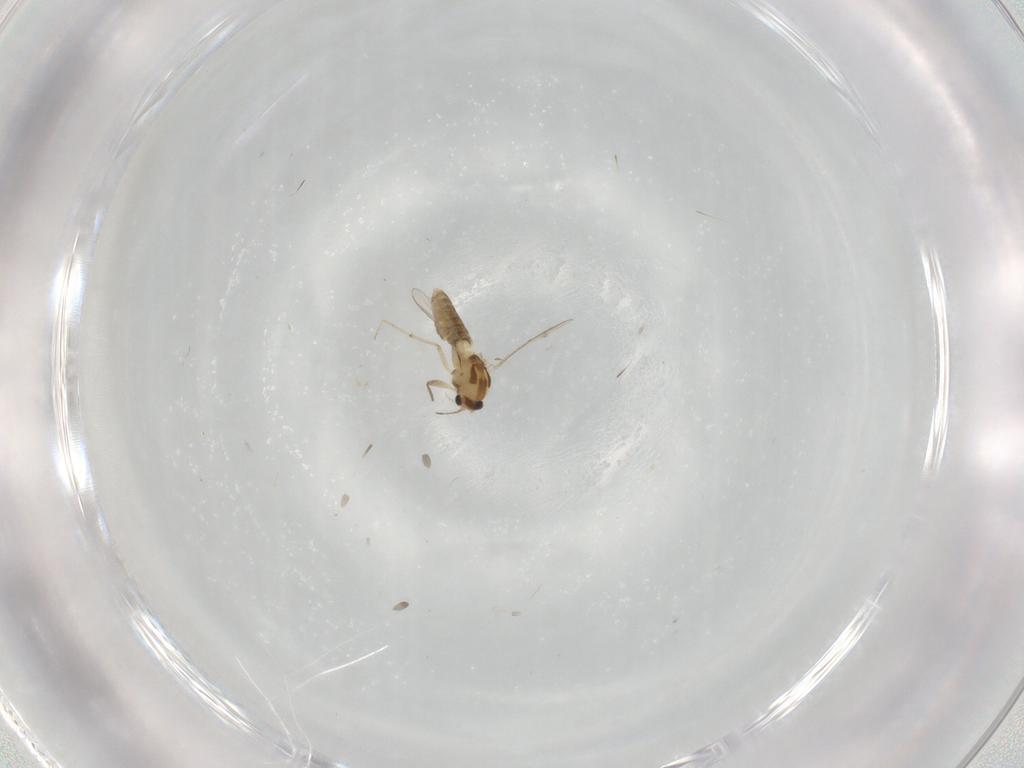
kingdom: Animalia
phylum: Arthropoda
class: Insecta
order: Diptera
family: Chironomidae
